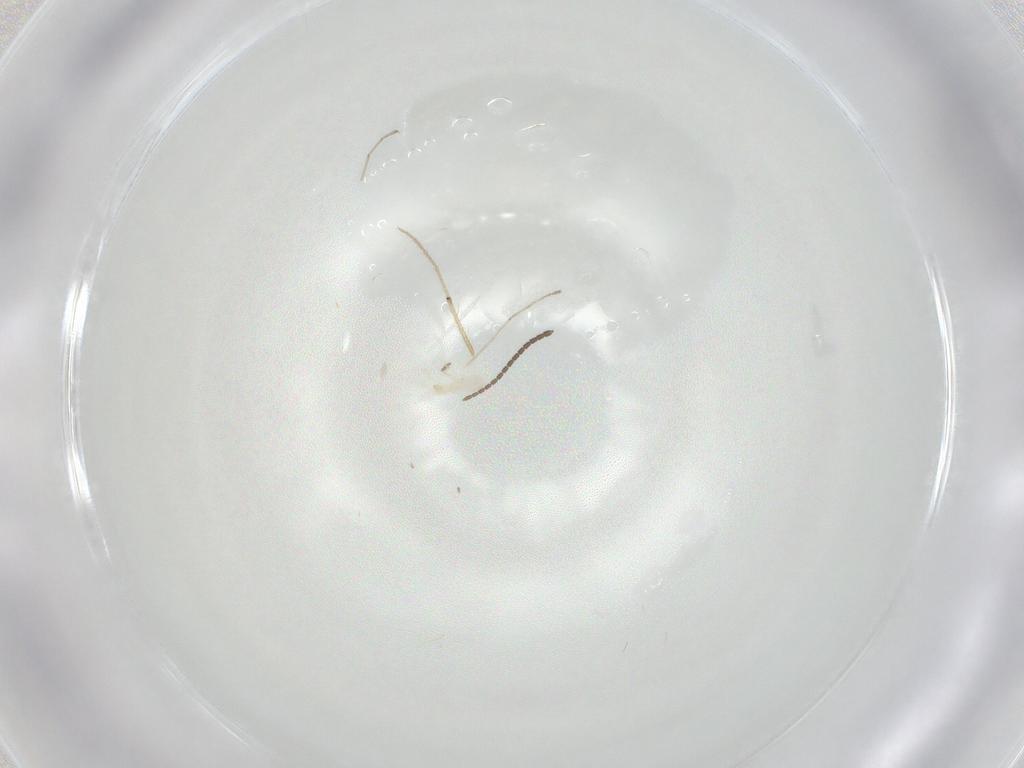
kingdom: Animalia
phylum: Arthropoda
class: Insecta
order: Diptera
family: Sciaridae
